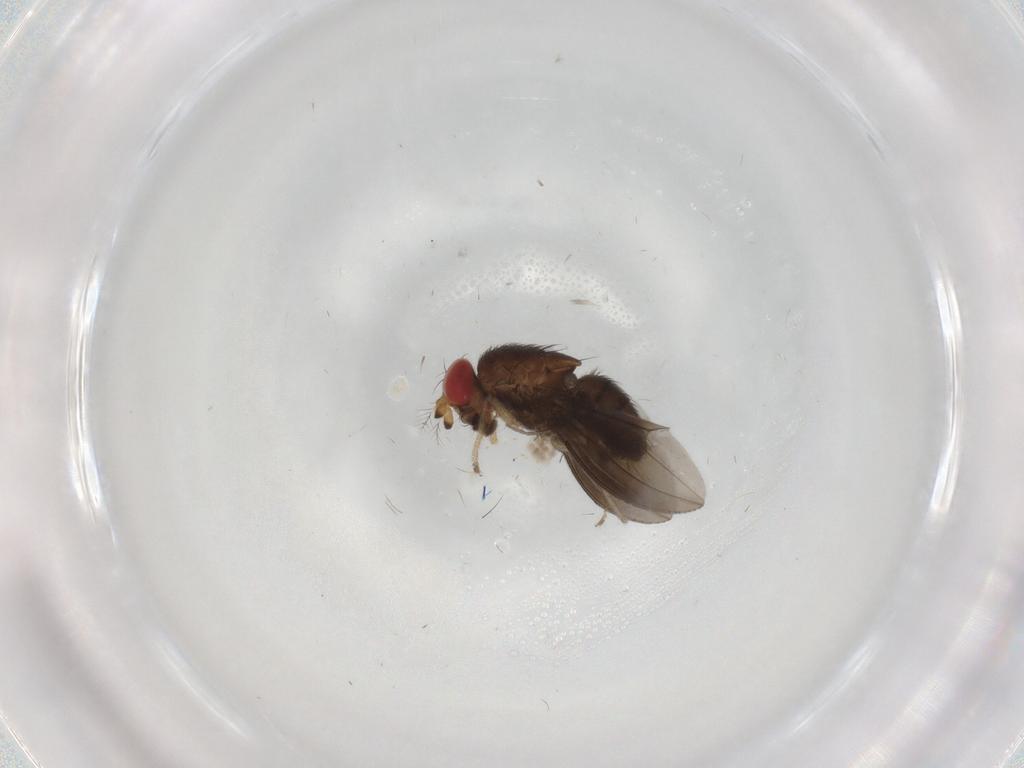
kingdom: Animalia
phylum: Arthropoda
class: Insecta
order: Diptera
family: Drosophilidae
